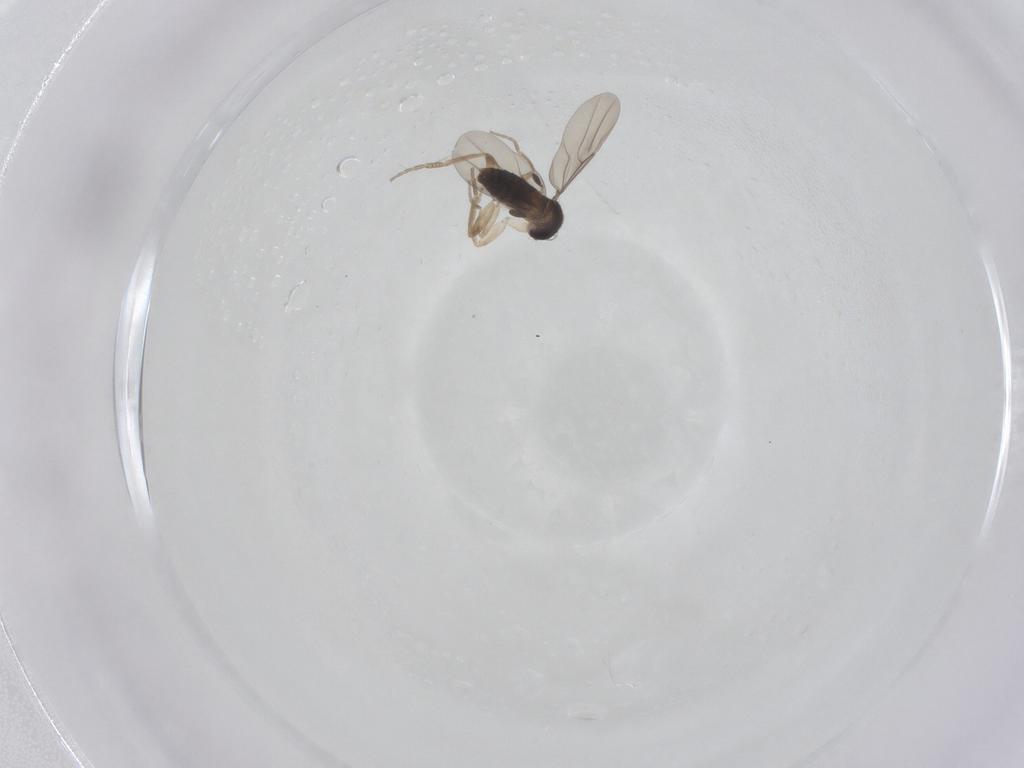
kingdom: Animalia
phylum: Arthropoda
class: Insecta
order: Diptera
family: Phoridae
